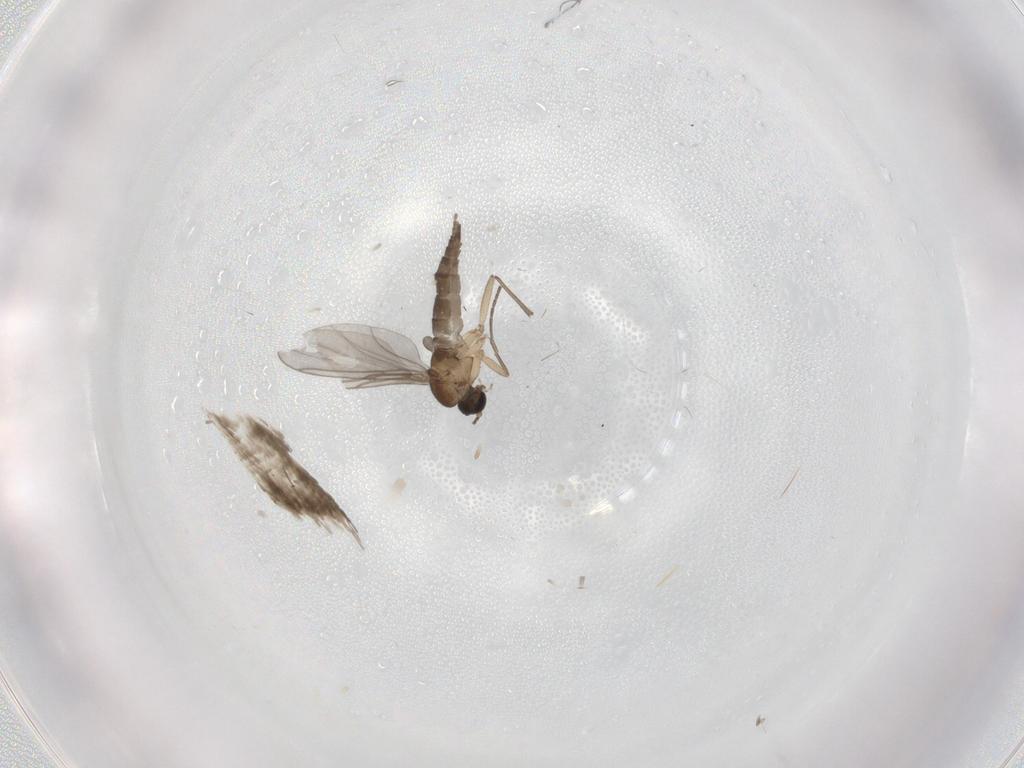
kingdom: Animalia
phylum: Arthropoda
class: Insecta
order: Diptera
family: Sciaridae
